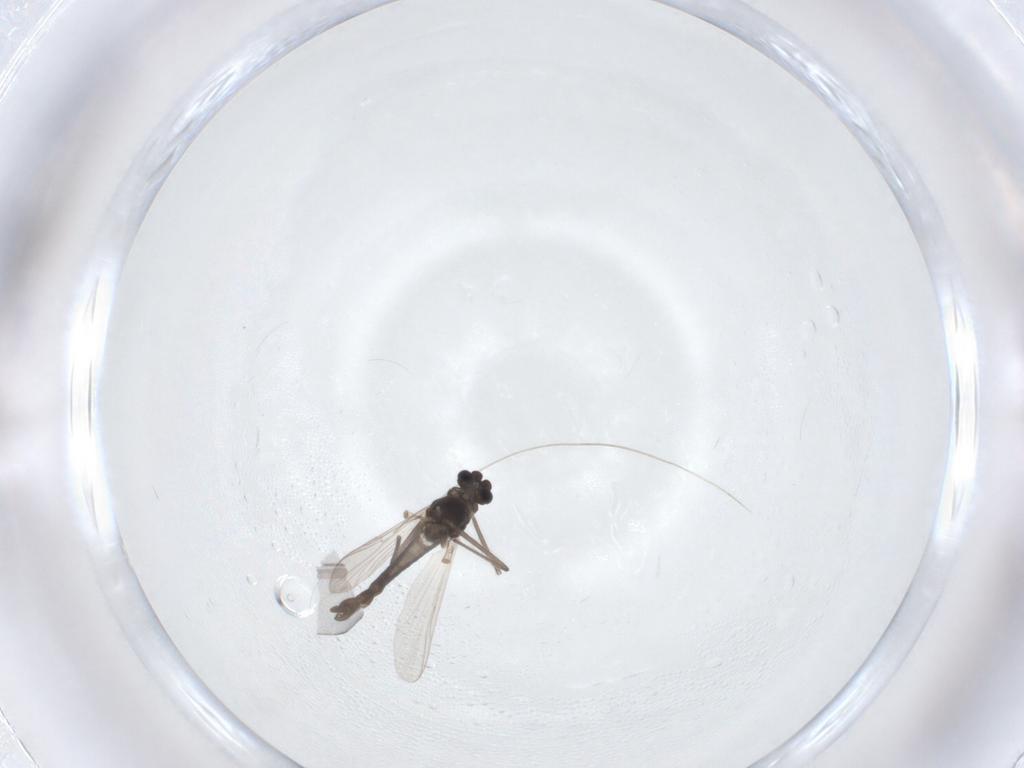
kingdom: Animalia
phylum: Arthropoda
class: Insecta
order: Diptera
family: Chironomidae
